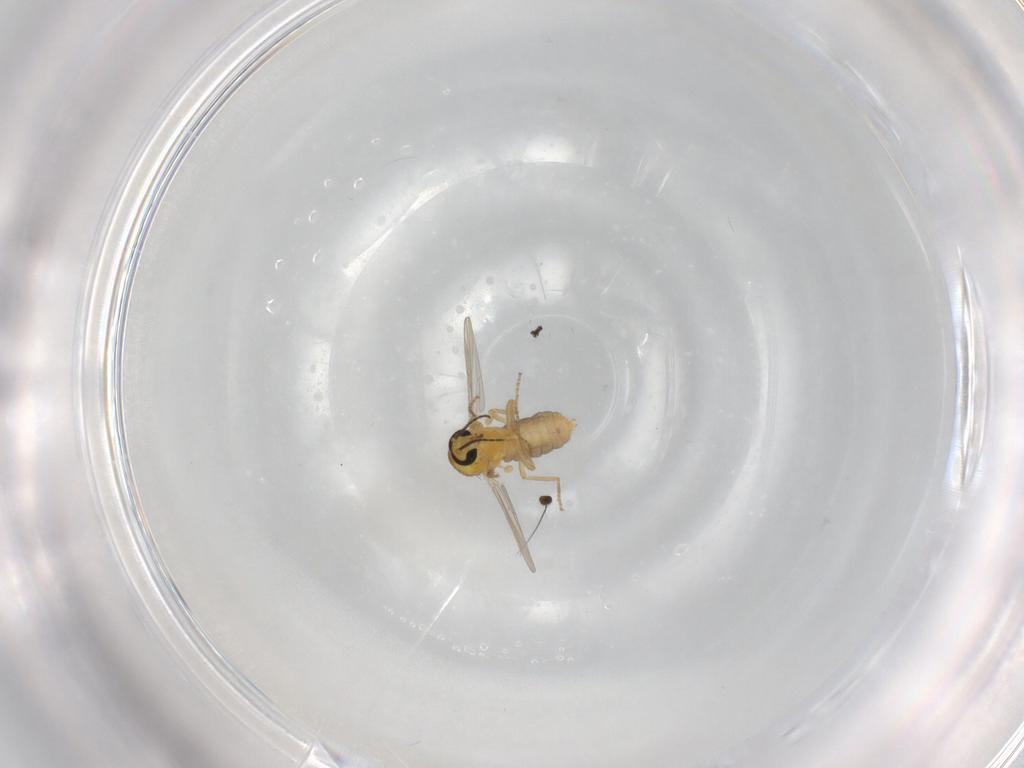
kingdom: Animalia
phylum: Arthropoda
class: Insecta
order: Diptera
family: Ceratopogonidae
